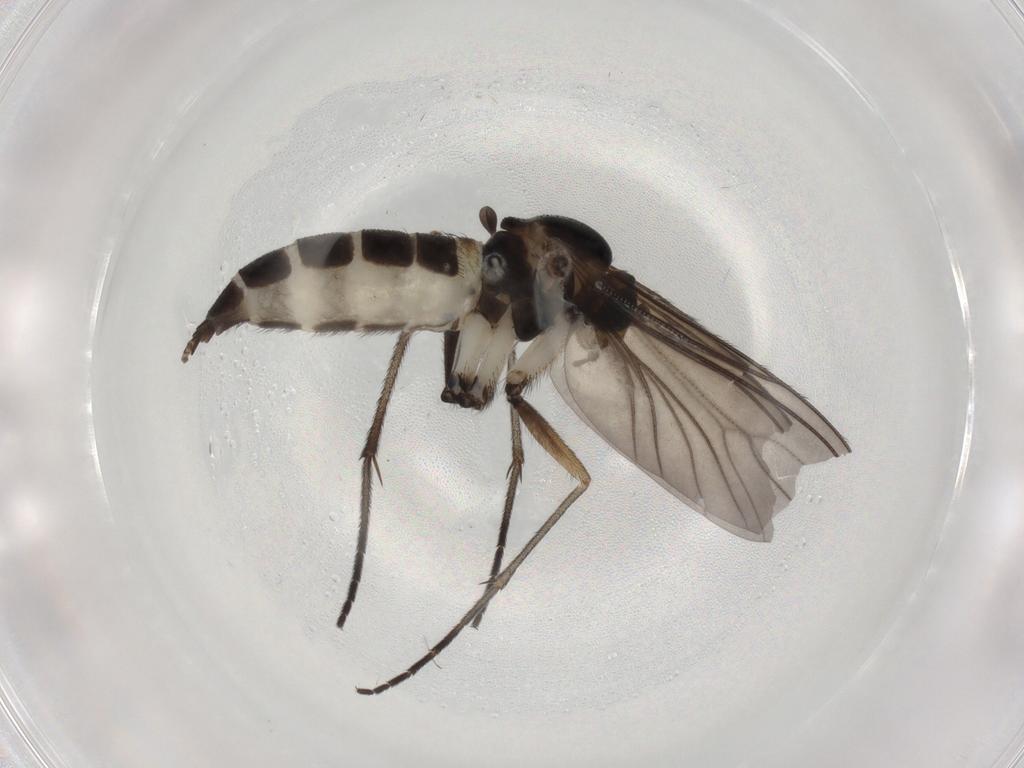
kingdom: Animalia
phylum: Arthropoda
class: Insecta
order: Diptera
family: Sciaridae
